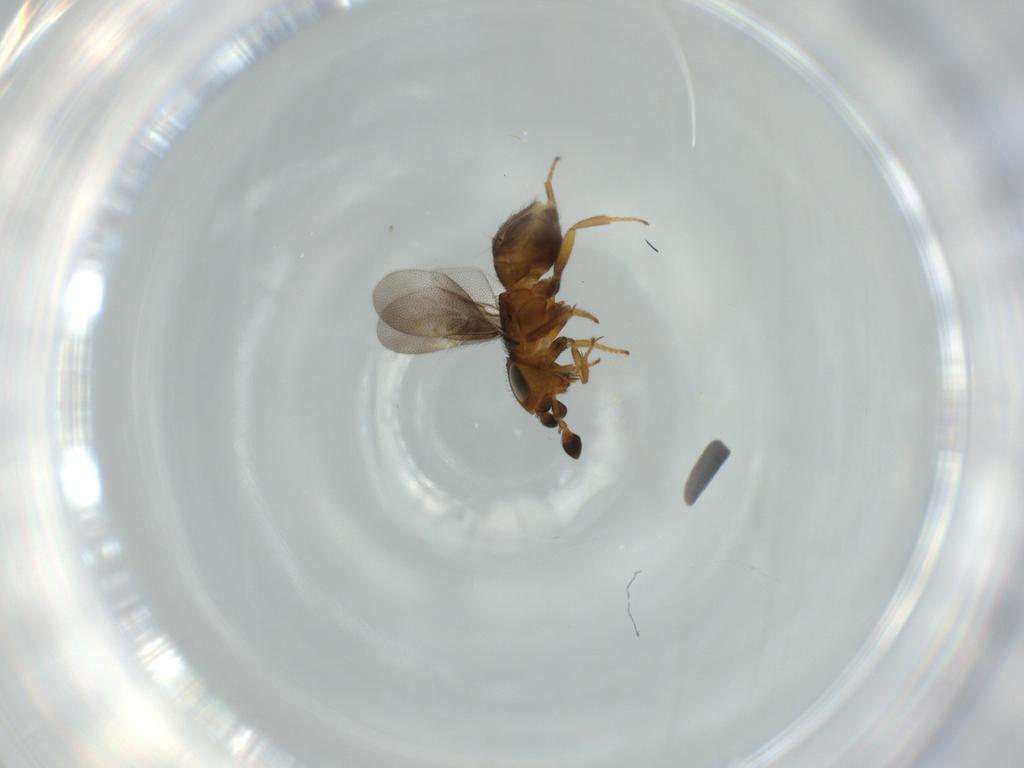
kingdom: Animalia
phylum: Arthropoda
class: Insecta
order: Hymenoptera
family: Encyrtidae
